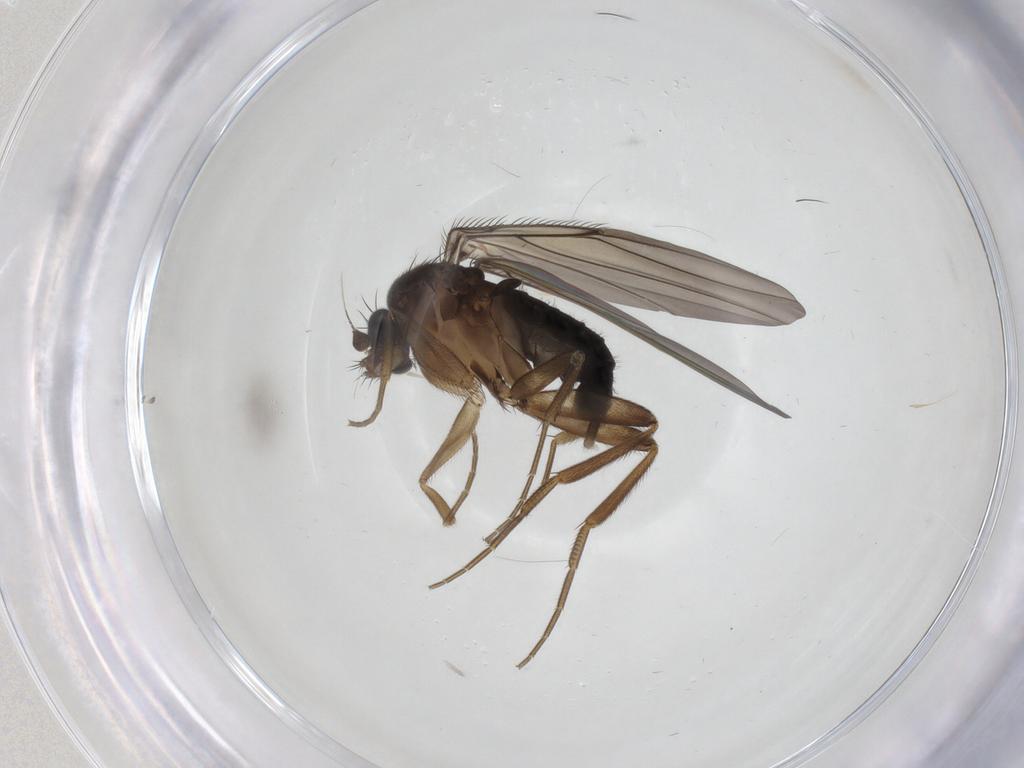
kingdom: Animalia
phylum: Arthropoda
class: Insecta
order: Diptera
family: Phoridae
